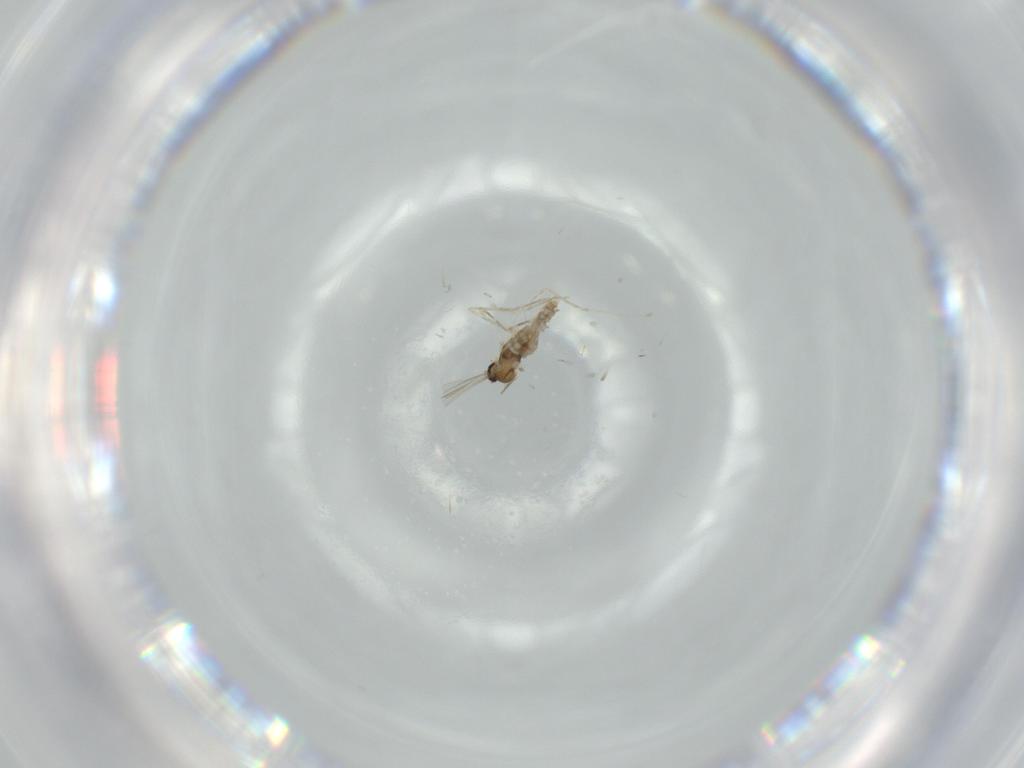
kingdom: Animalia
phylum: Arthropoda
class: Insecta
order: Diptera
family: Cecidomyiidae
